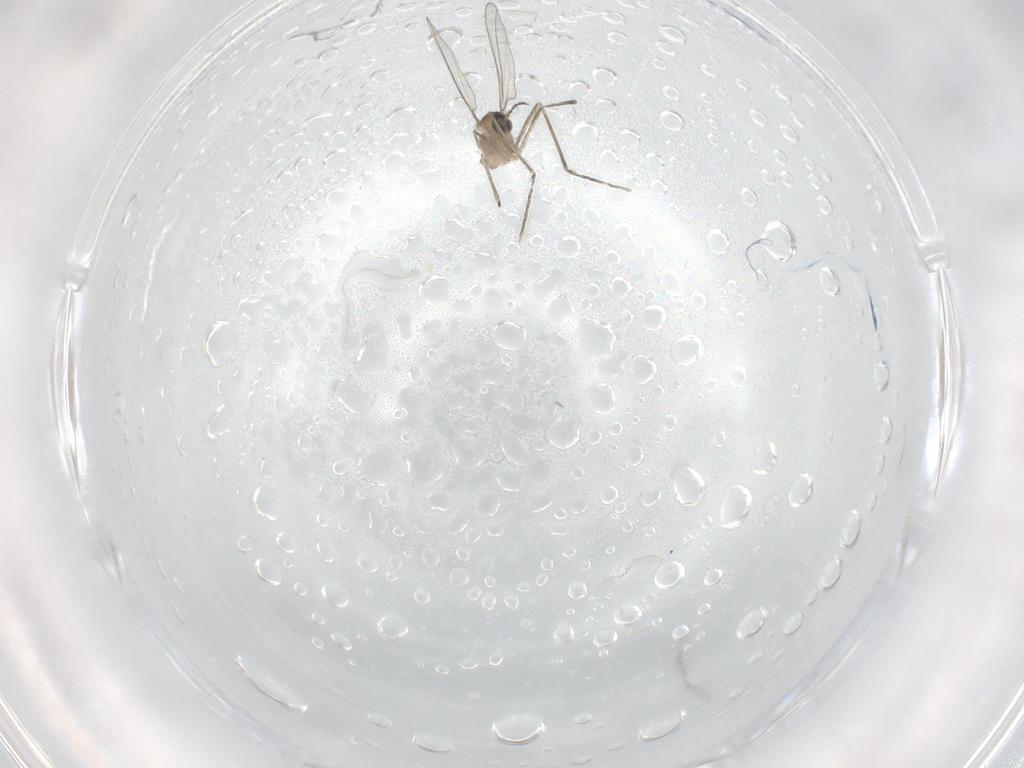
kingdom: Animalia
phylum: Arthropoda
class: Insecta
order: Diptera
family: Cecidomyiidae
